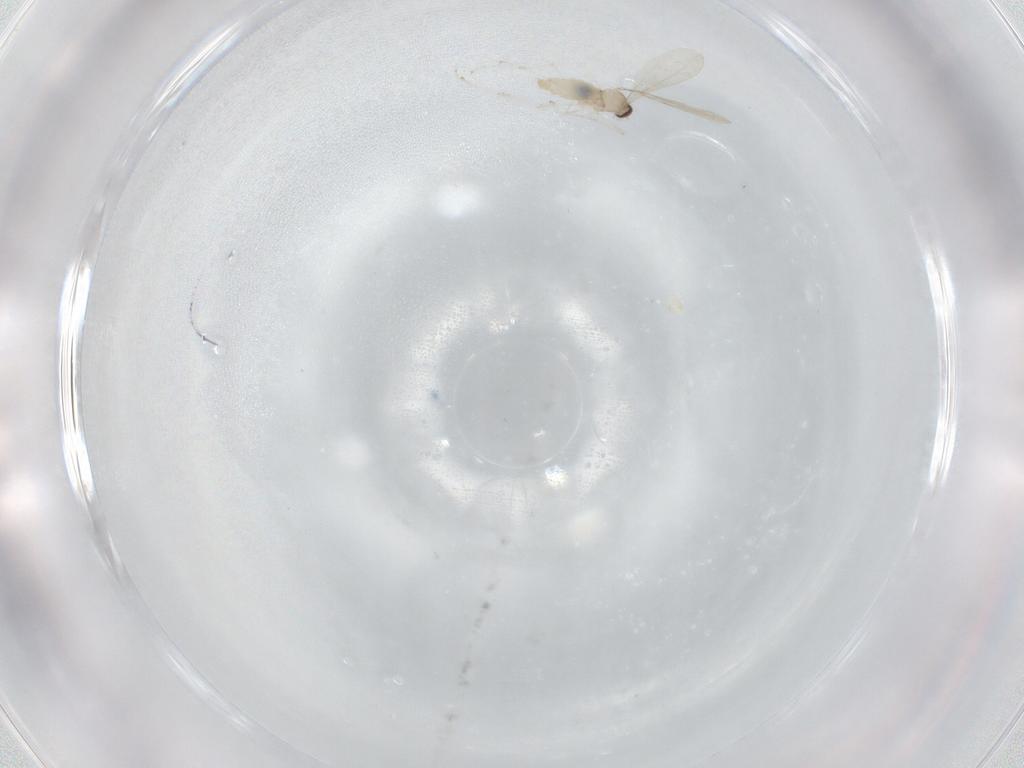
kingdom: Animalia
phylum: Arthropoda
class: Insecta
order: Diptera
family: Cecidomyiidae
